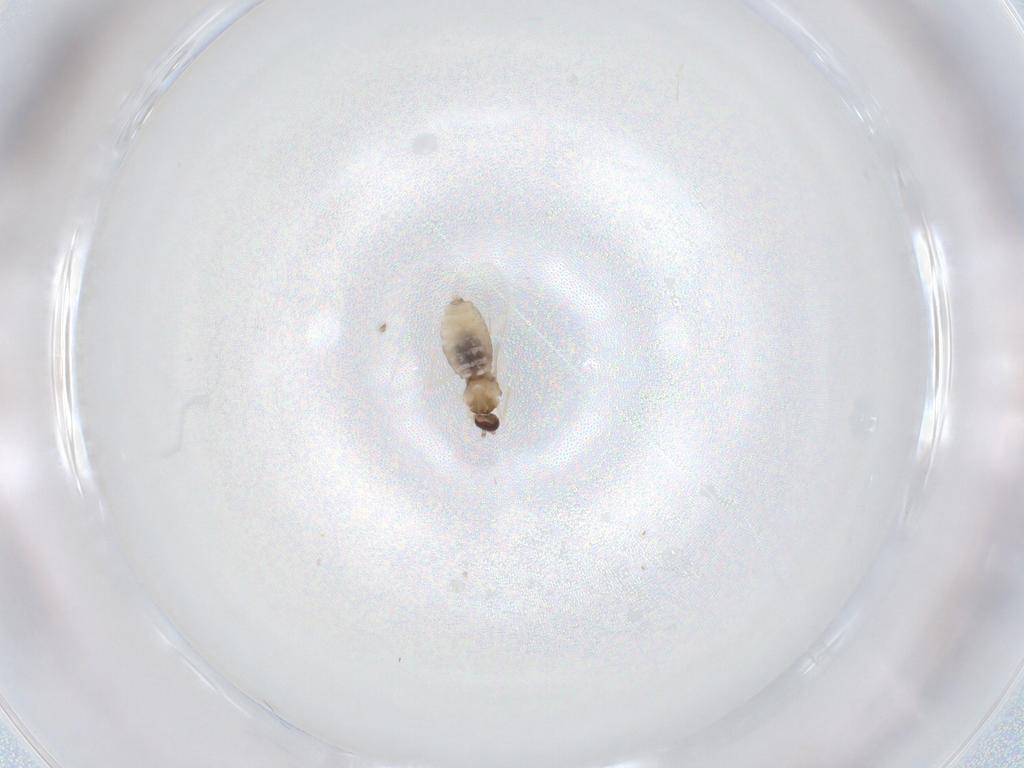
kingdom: Animalia
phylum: Arthropoda
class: Insecta
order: Diptera
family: Cecidomyiidae
